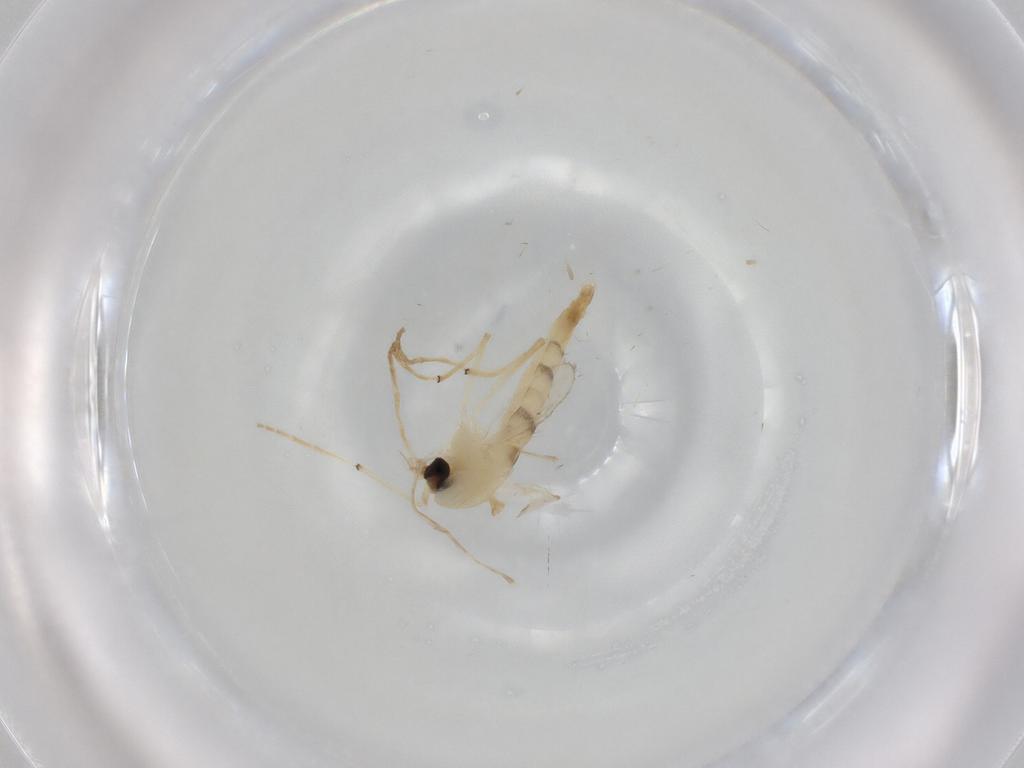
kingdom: Animalia
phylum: Arthropoda
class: Insecta
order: Diptera
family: Chironomidae
